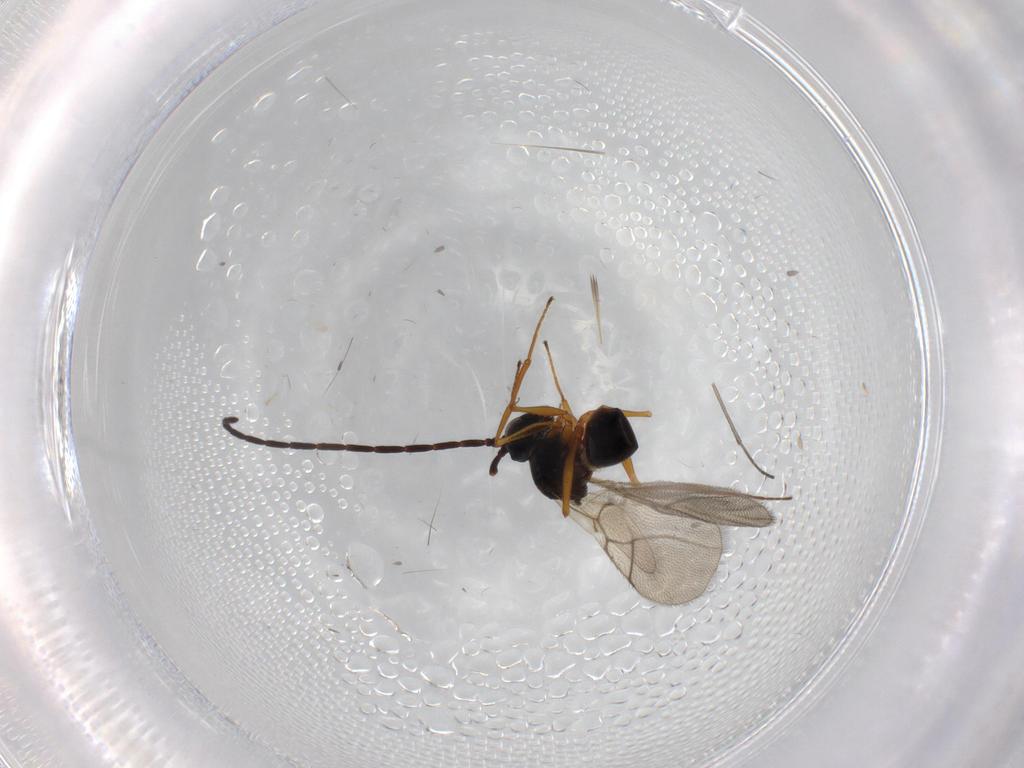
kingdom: Animalia
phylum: Arthropoda
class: Insecta
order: Hymenoptera
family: Figitidae
